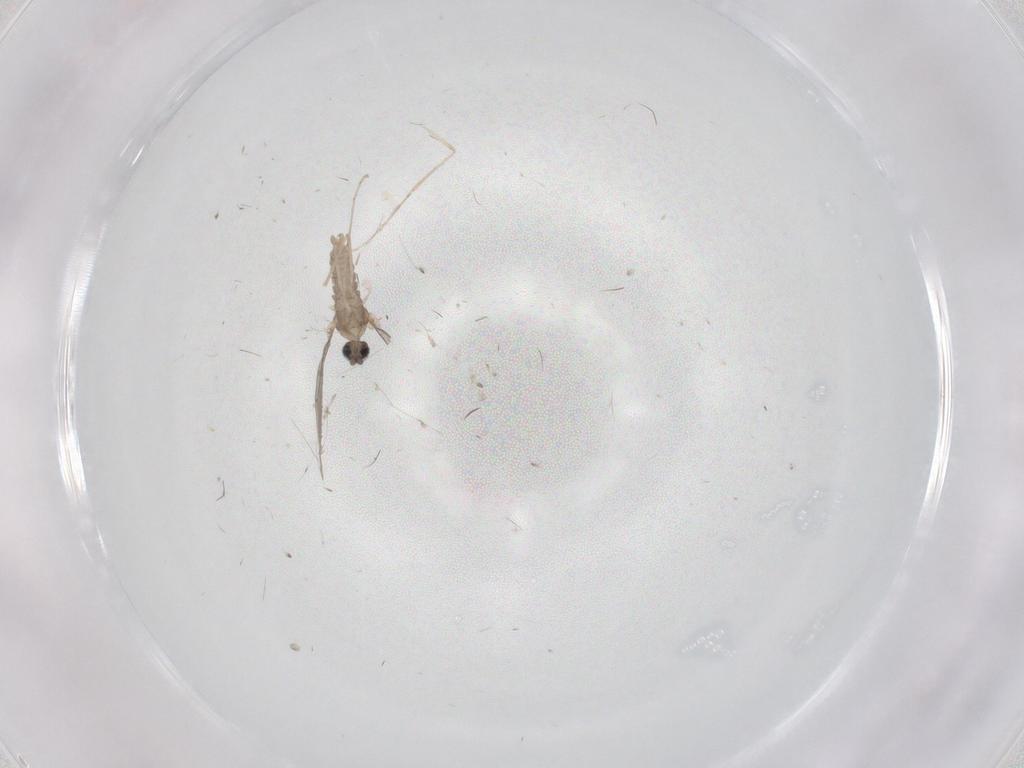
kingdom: Animalia
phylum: Arthropoda
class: Insecta
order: Diptera
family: Cecidomyiidae
